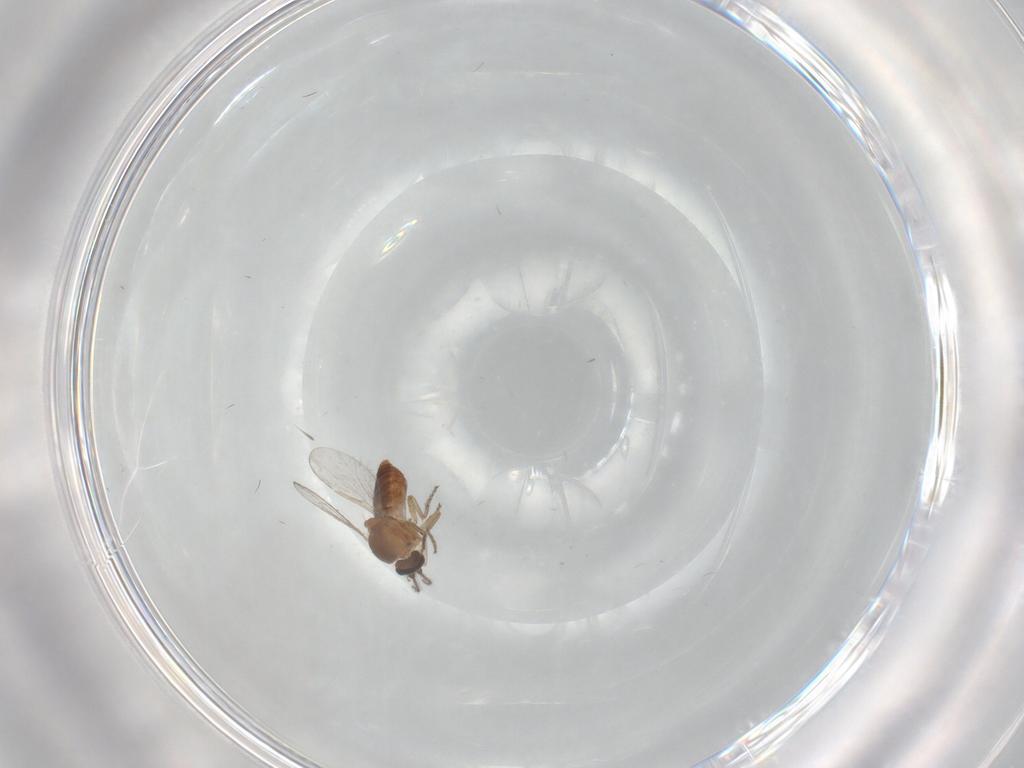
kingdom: Animalia
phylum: Arthropoda
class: Insecta
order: Diptera
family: Ceratopogonidae
